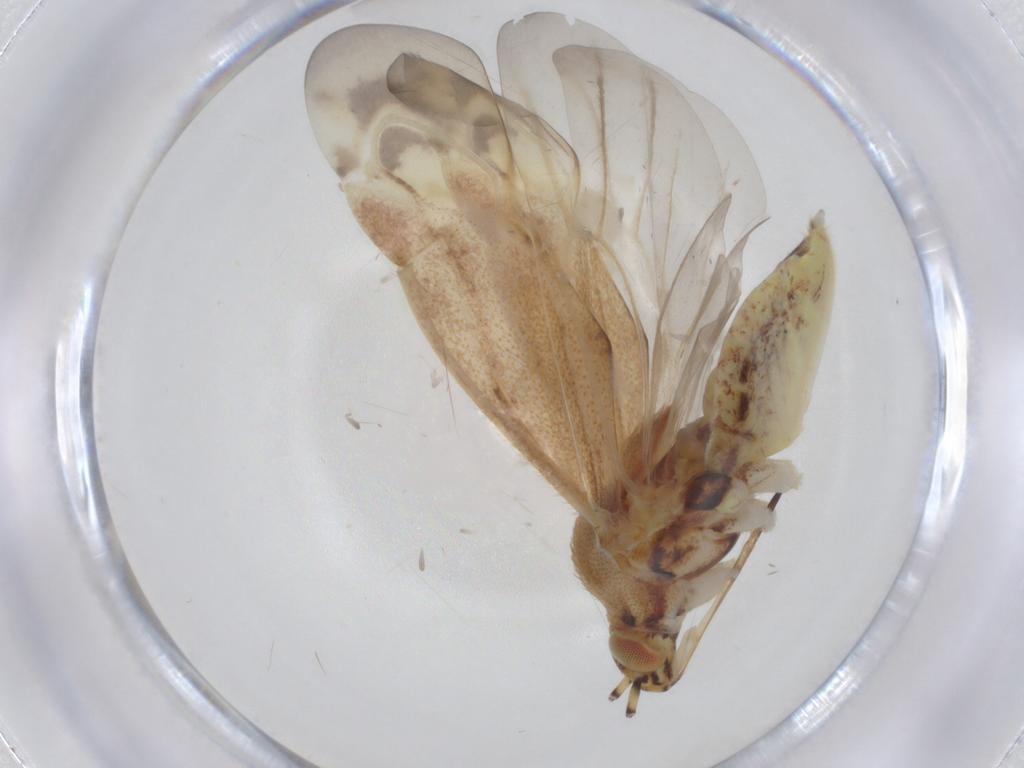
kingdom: Animalia
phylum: Arthropoda
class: Insecta
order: Hemiptera
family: Miridae
